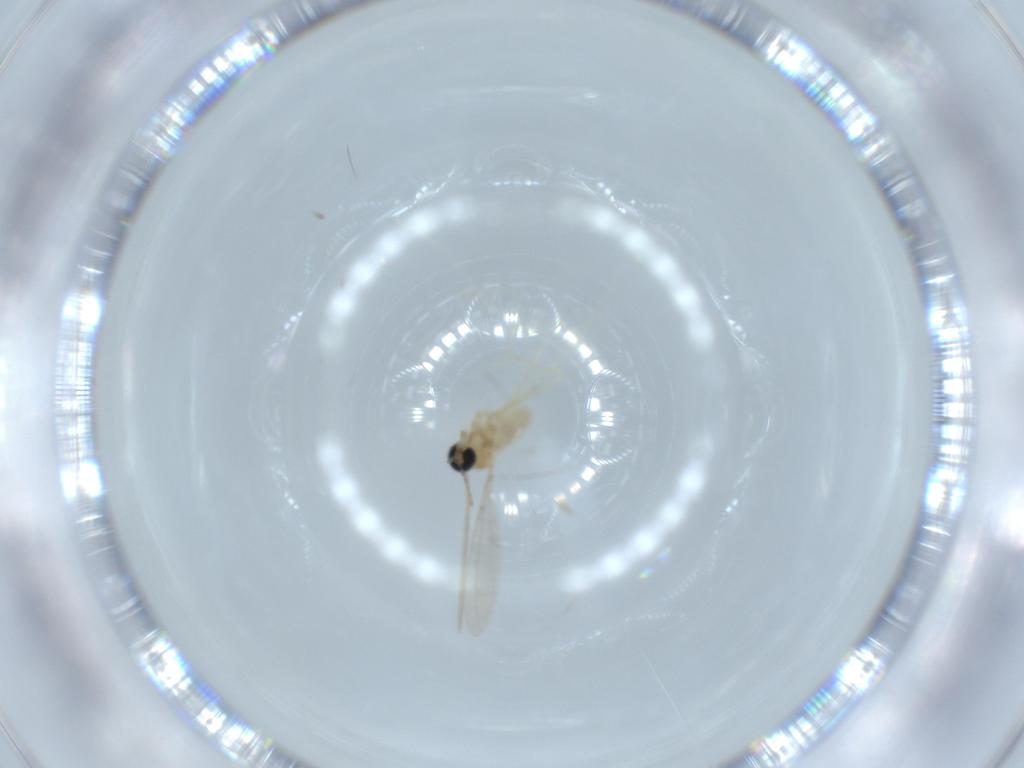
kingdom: Animalia
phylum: Arthropoda
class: Insecta
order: Diptera
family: Cecidomyiidae
